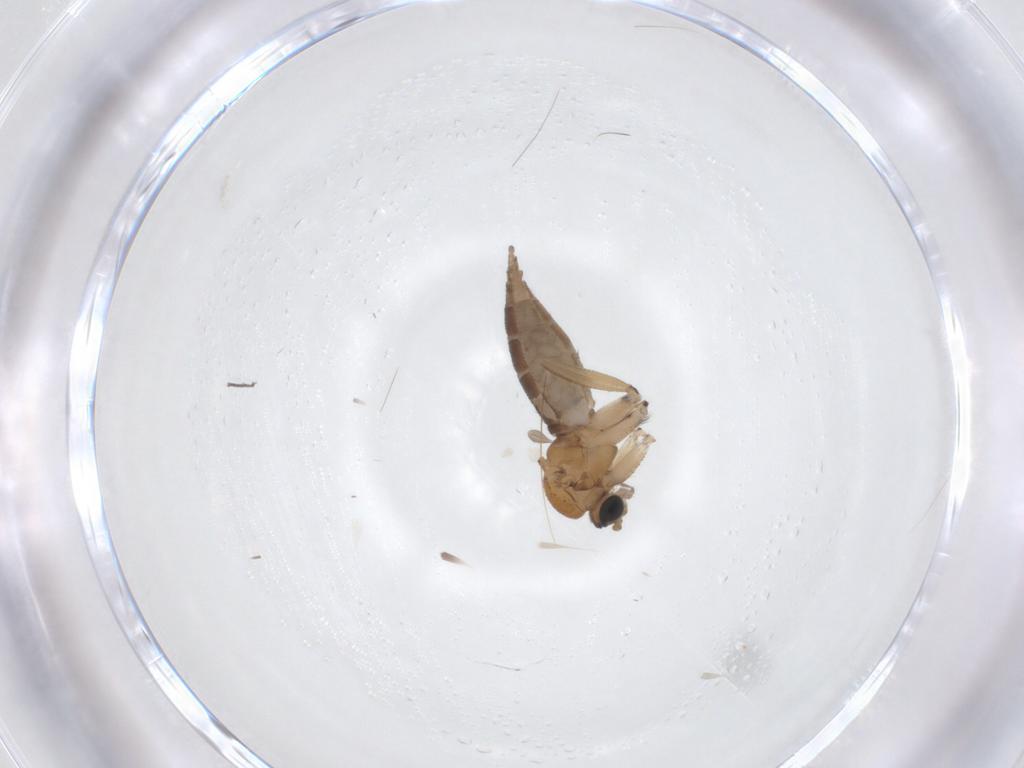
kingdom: Animalia
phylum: Arthropoda
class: Insecta
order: Diptera
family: Sciaridae
